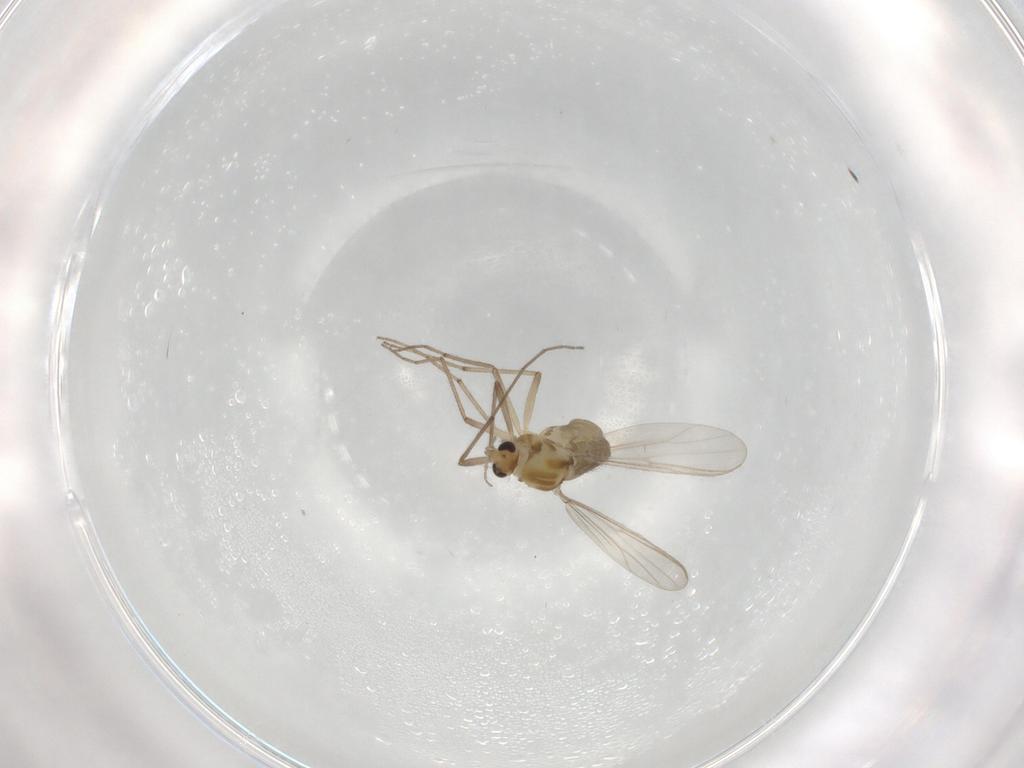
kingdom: Animalia
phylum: Arthropoda
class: Insecta
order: Diptera
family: Chironomidae
